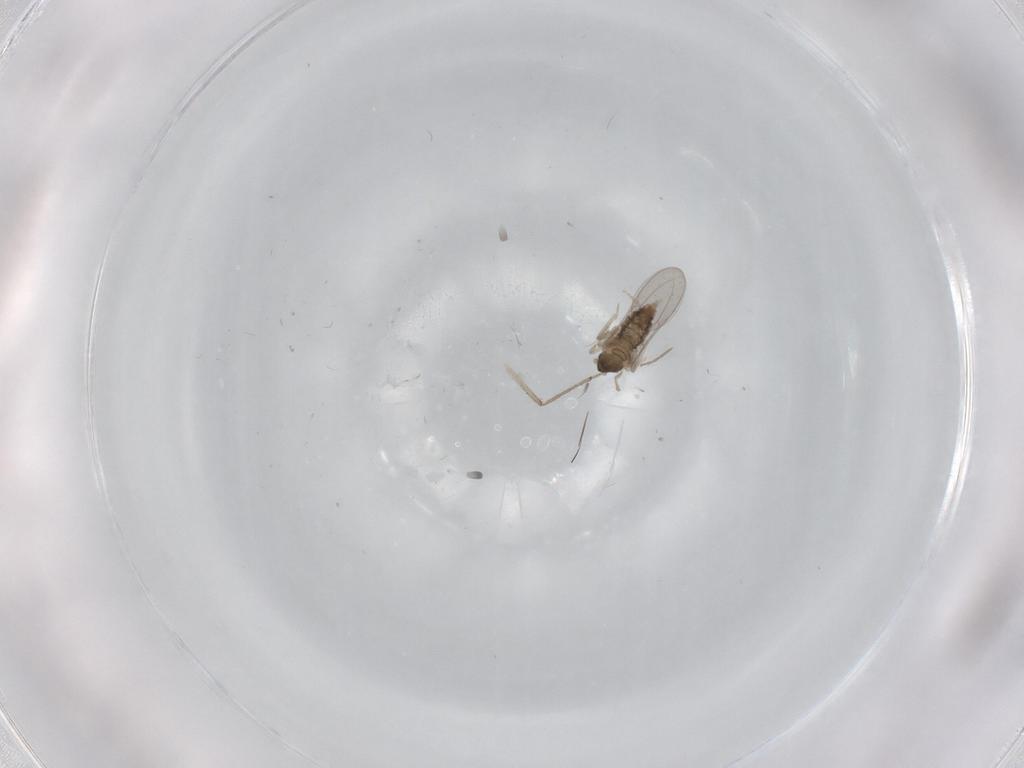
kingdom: Animalia
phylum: Arthropoda
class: Insecta
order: Diptera
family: Cecidomyiidae
